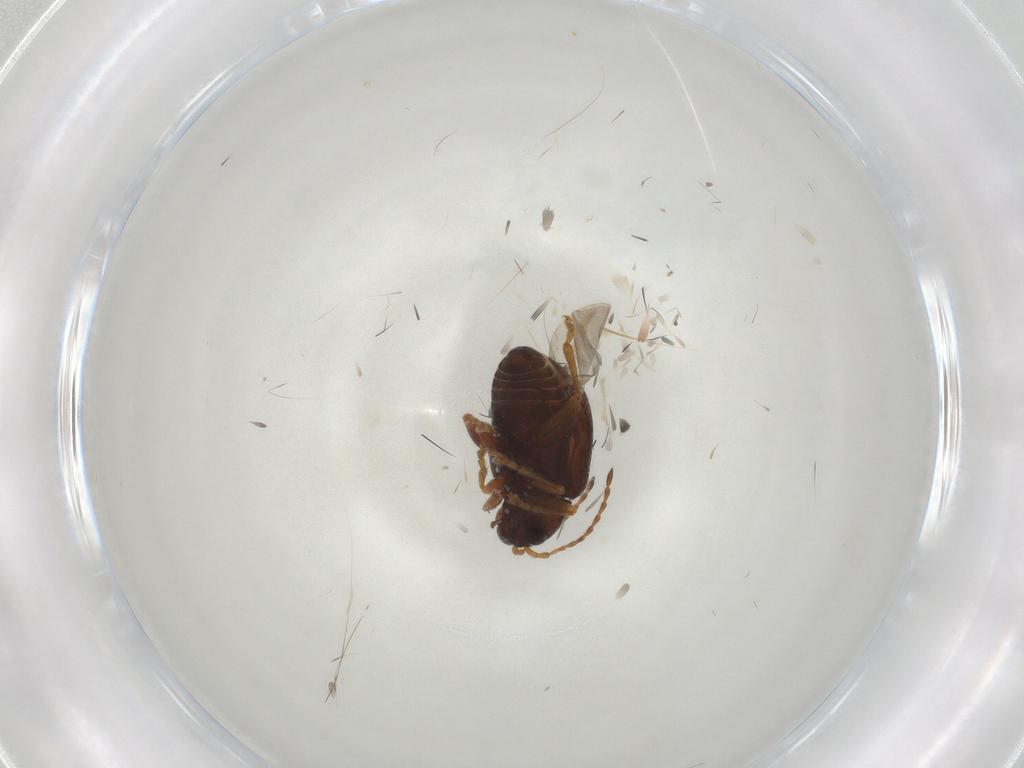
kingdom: Animalia
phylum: Arthropoda
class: Insecta
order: Coleoptera
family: Chrysomelidae
